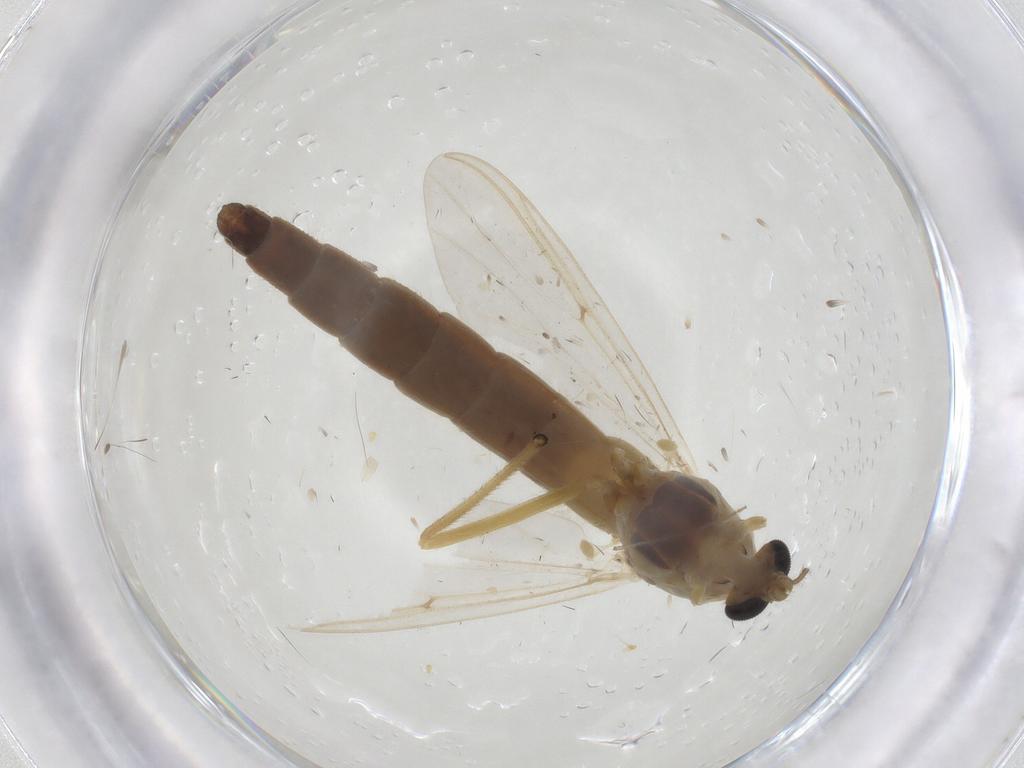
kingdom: Animalia
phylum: Arthropoda
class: Insecta
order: Diptera
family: Chironomidae
